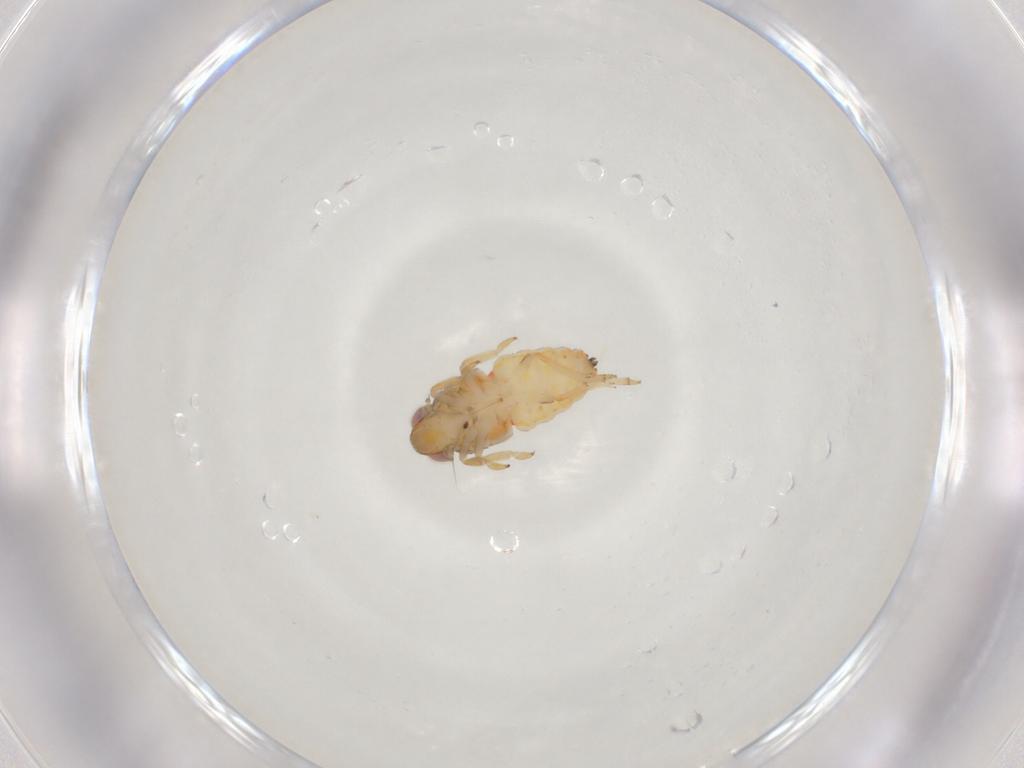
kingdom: Animalia
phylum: Arthropoda
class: Insecta
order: Hemiptera
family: Issidae
